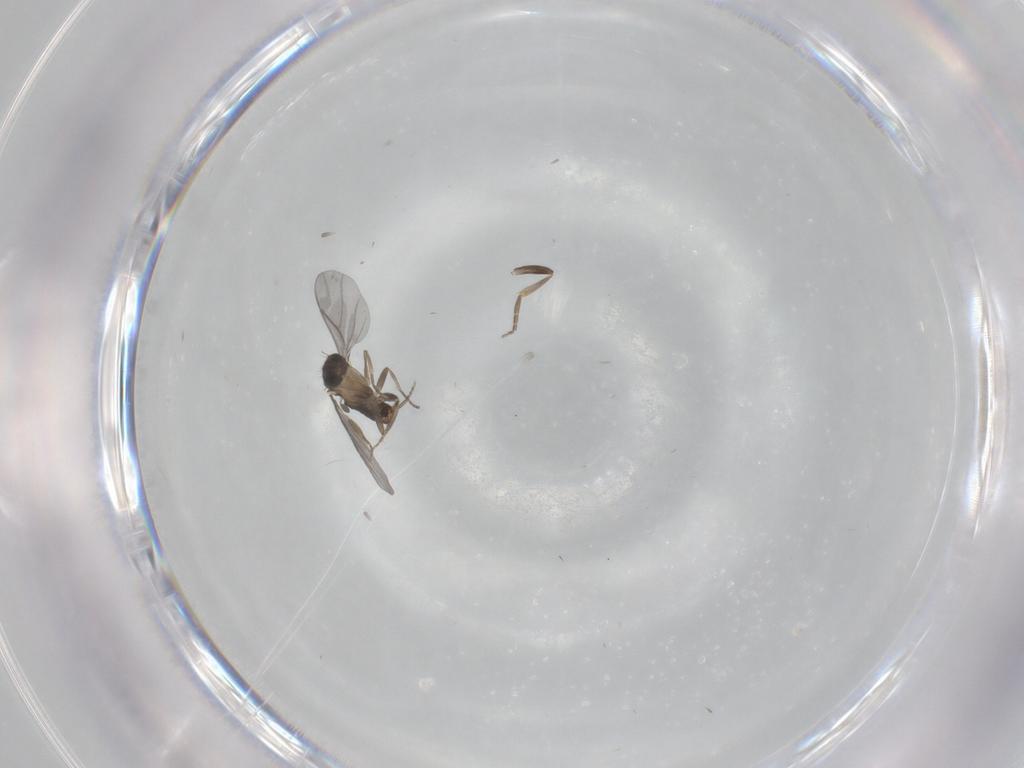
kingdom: Animalia
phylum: Arthropoda
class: Insecta
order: Diptera
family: Phoridae
